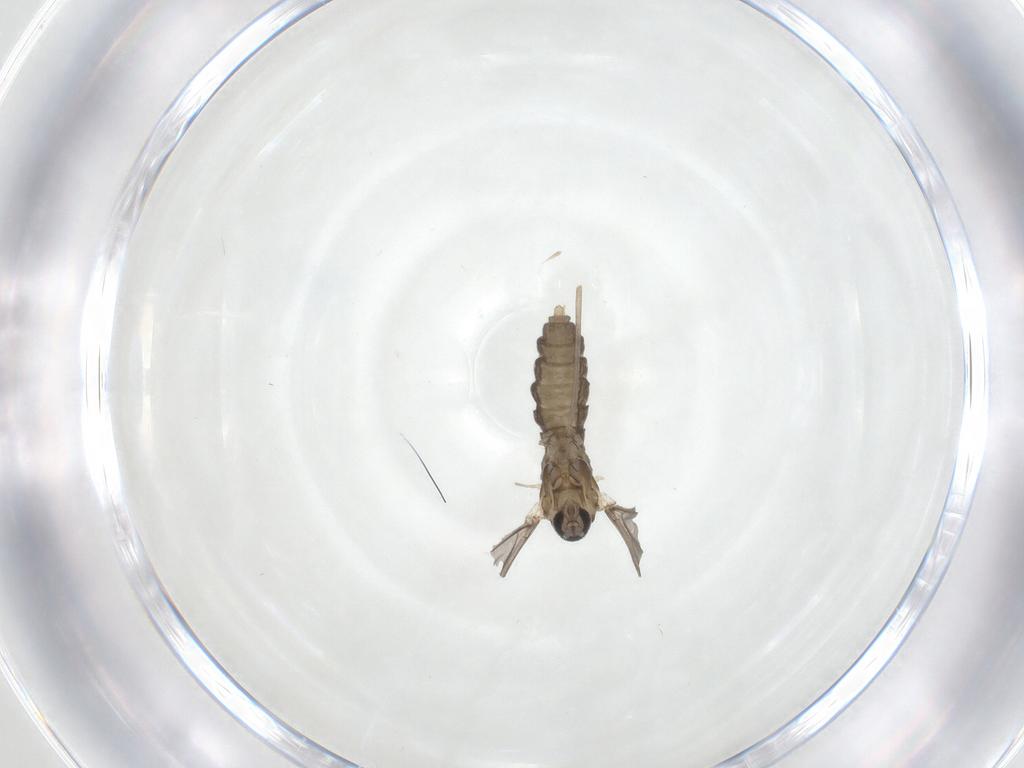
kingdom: Animalia
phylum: Arthropoda
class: Insecta
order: Diptera
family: Cecidomyiidae
